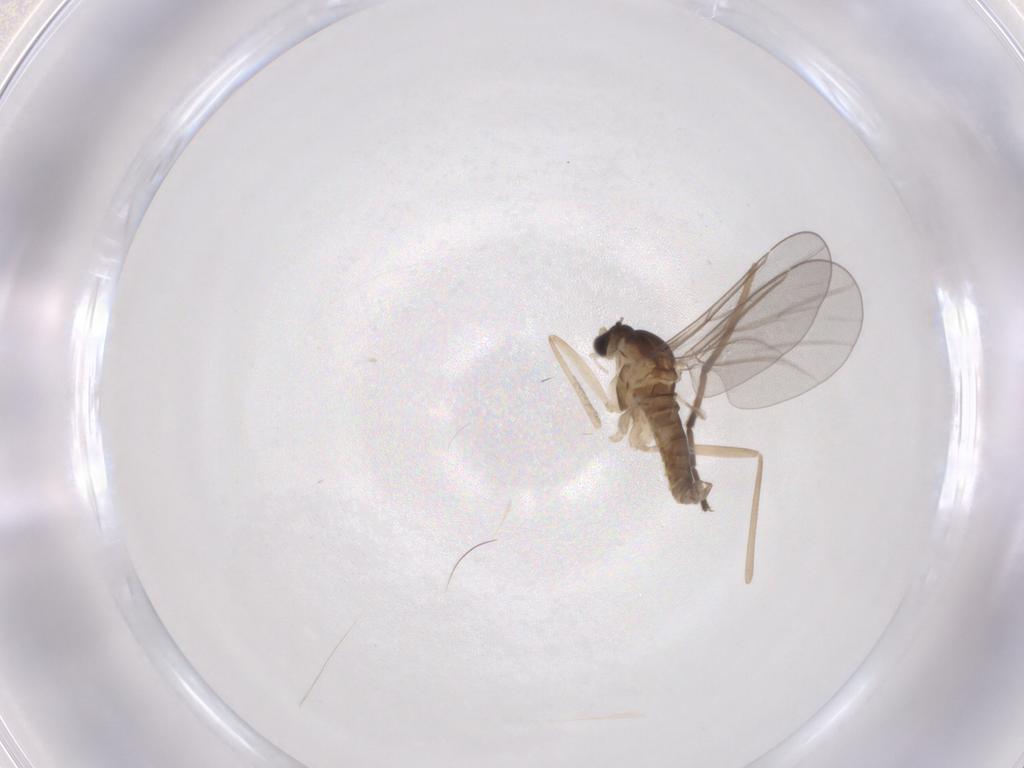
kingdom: Animalia
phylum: Arthropoda
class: Insecta
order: Diptera
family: Cecidomyiidae
